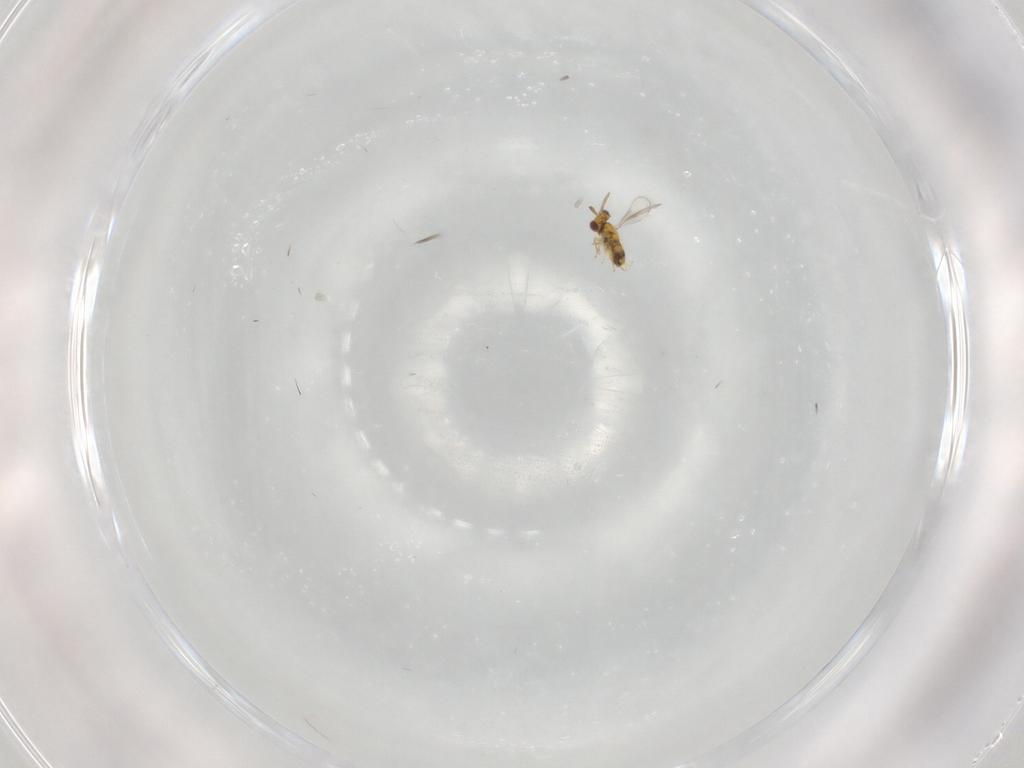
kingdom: Animalia
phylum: Arthropoda
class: Insecta
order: Hymenoptera
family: Aphelinidae
